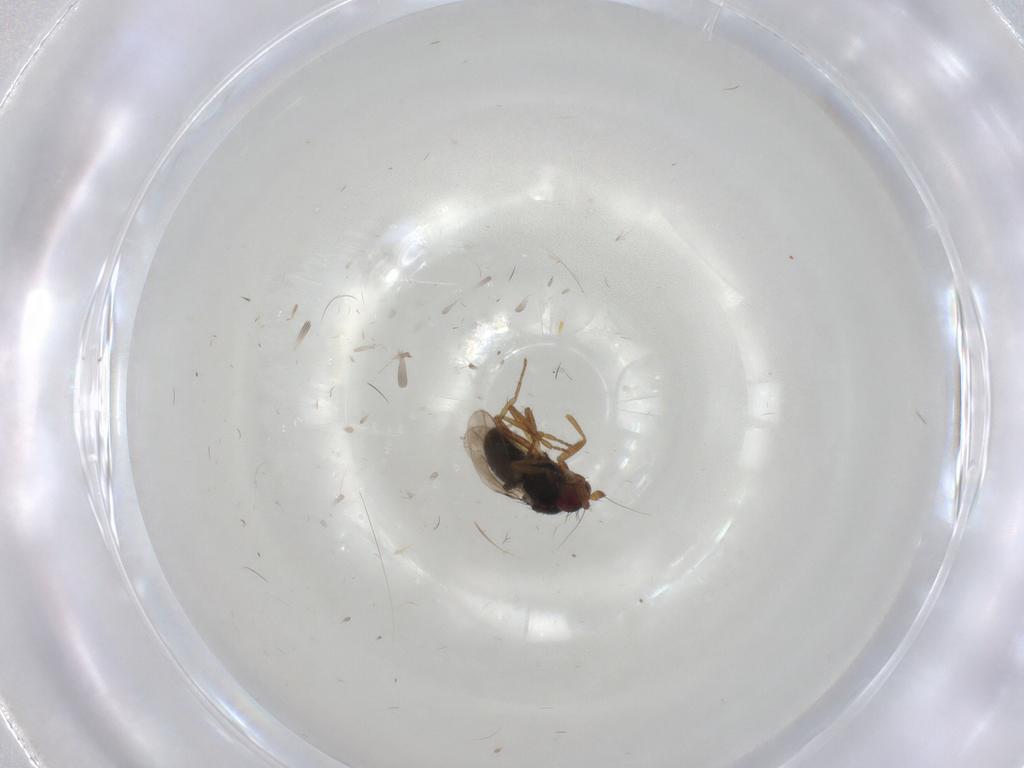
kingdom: Animalia
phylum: Arthropoda
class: Insecta
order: Diptera
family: Sphaeroceridae
